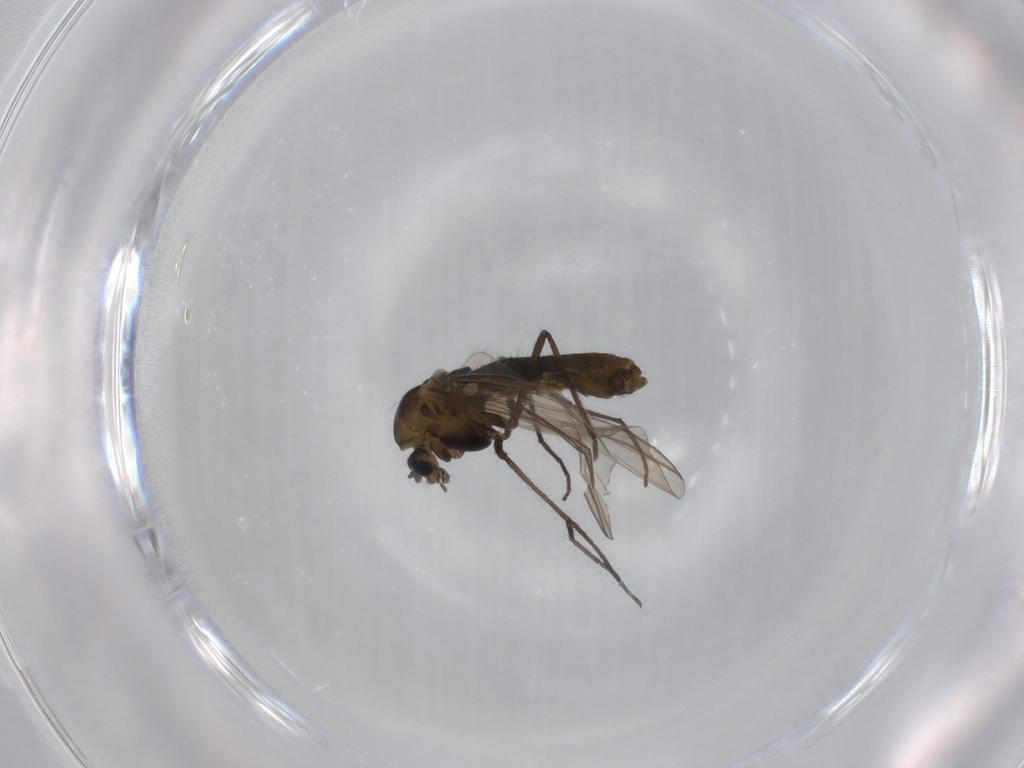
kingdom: Animalia
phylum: Arthropoda
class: Insecta
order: Diptera
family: Chironomidae
